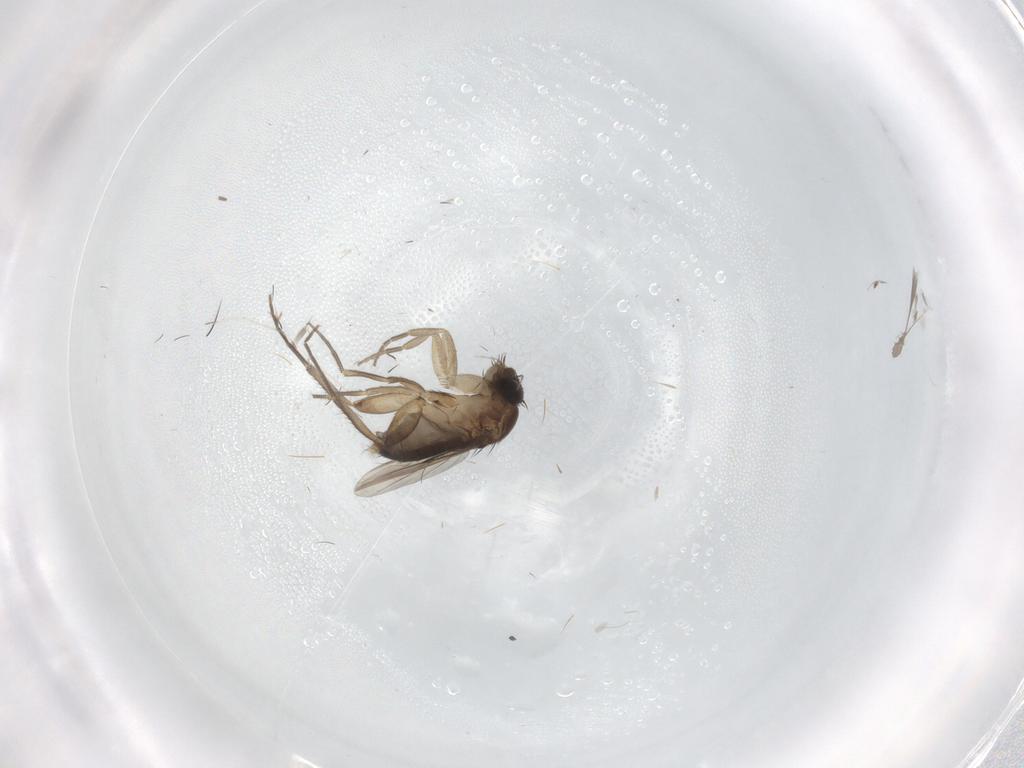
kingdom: Animalia
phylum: Arthropoda
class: Insecta
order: Diptera
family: Phoridae
